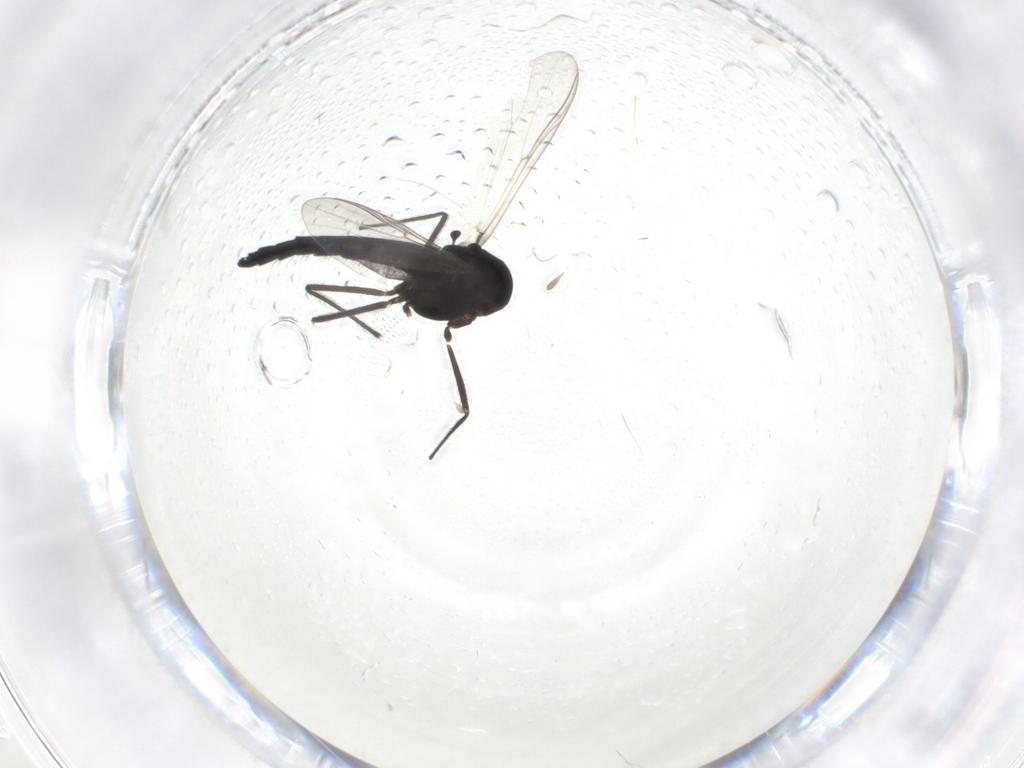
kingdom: Animalia
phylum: Arthropoda
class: Insecta
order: Diptera
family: Chironomidae
